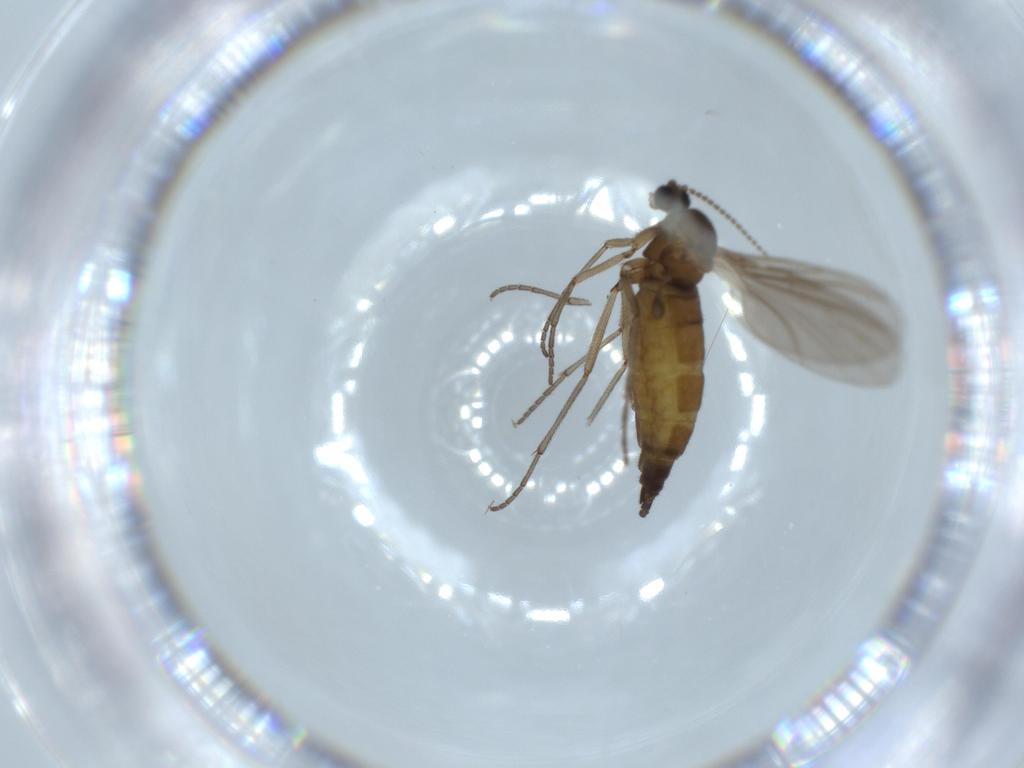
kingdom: Animalia
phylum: Arthropoda
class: Insecta
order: Diptera
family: Sciaridae
